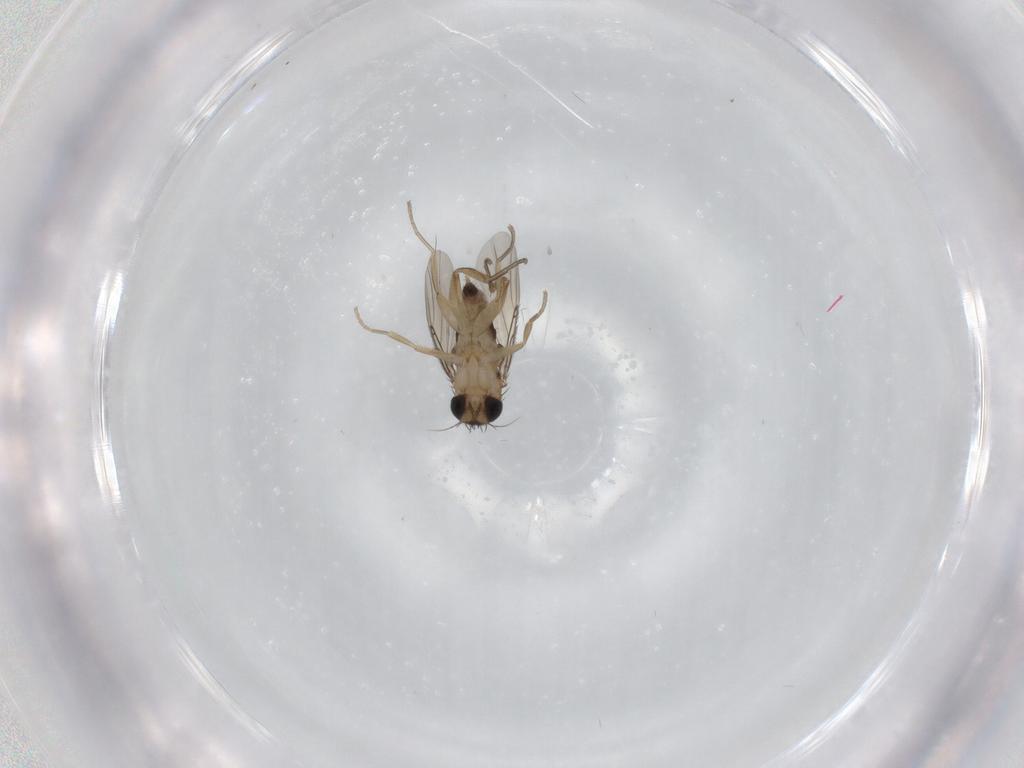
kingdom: Animalia
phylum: Arthropoda
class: Insecta
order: Diptera
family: Phoridae
